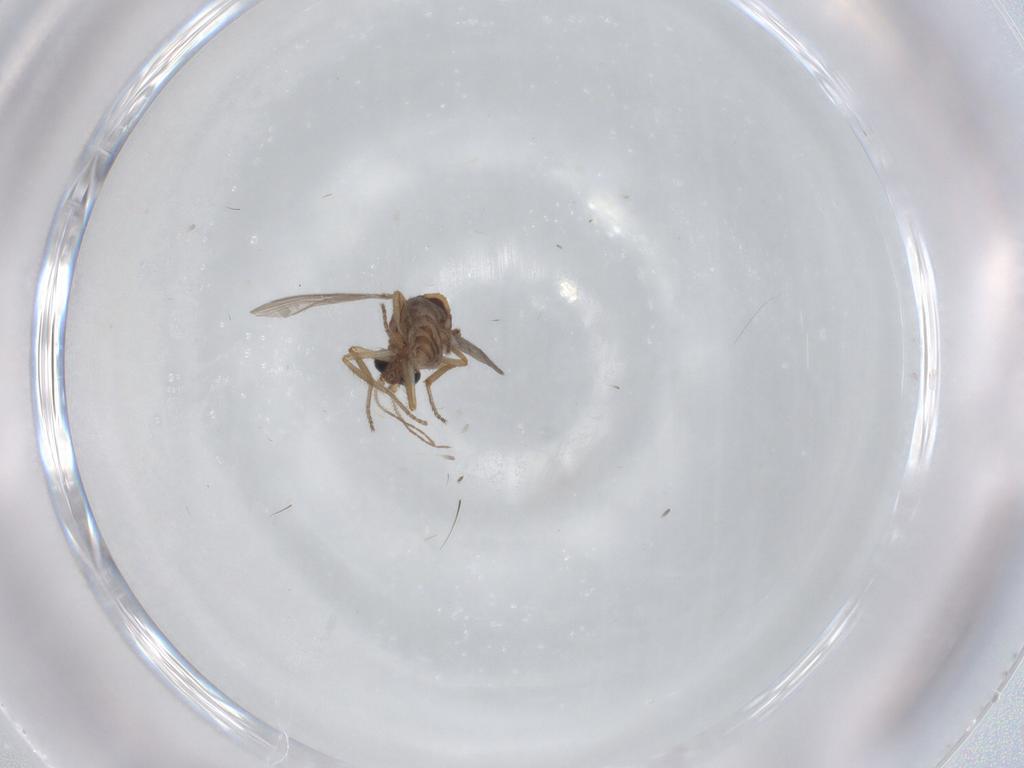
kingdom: Animalia
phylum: Arthropoda
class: Insecta
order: Diptera
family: Ceratopogonidae
